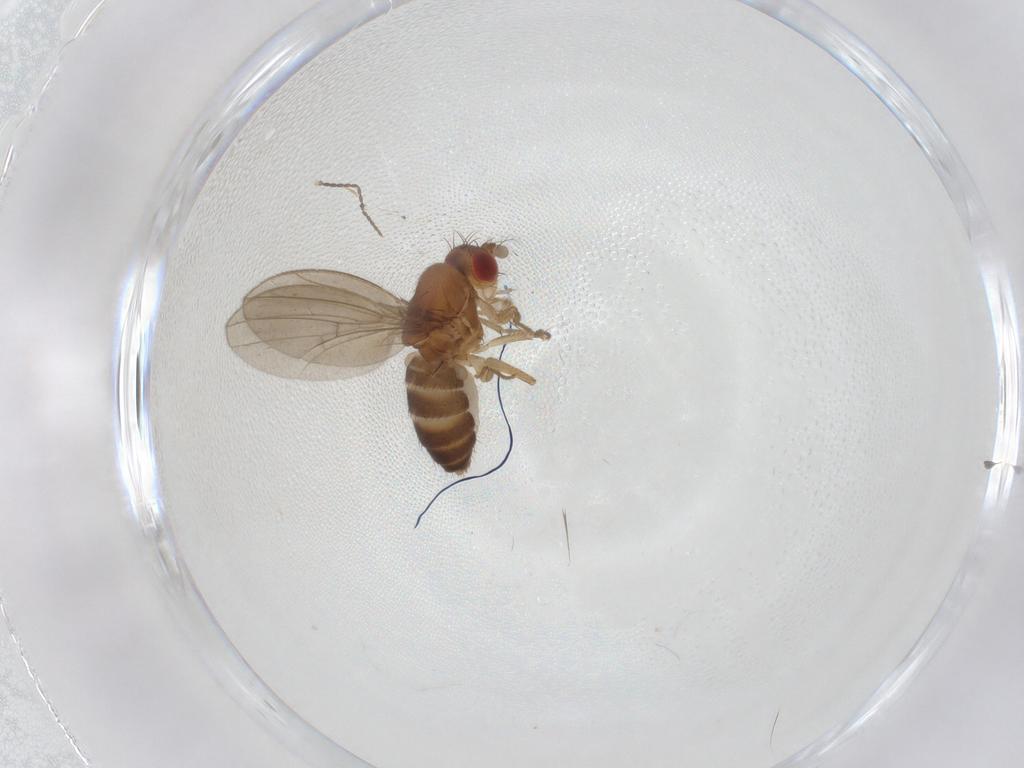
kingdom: Animalia
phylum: Arthropoda
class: Insecta
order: Diptera
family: Drosophilidae
